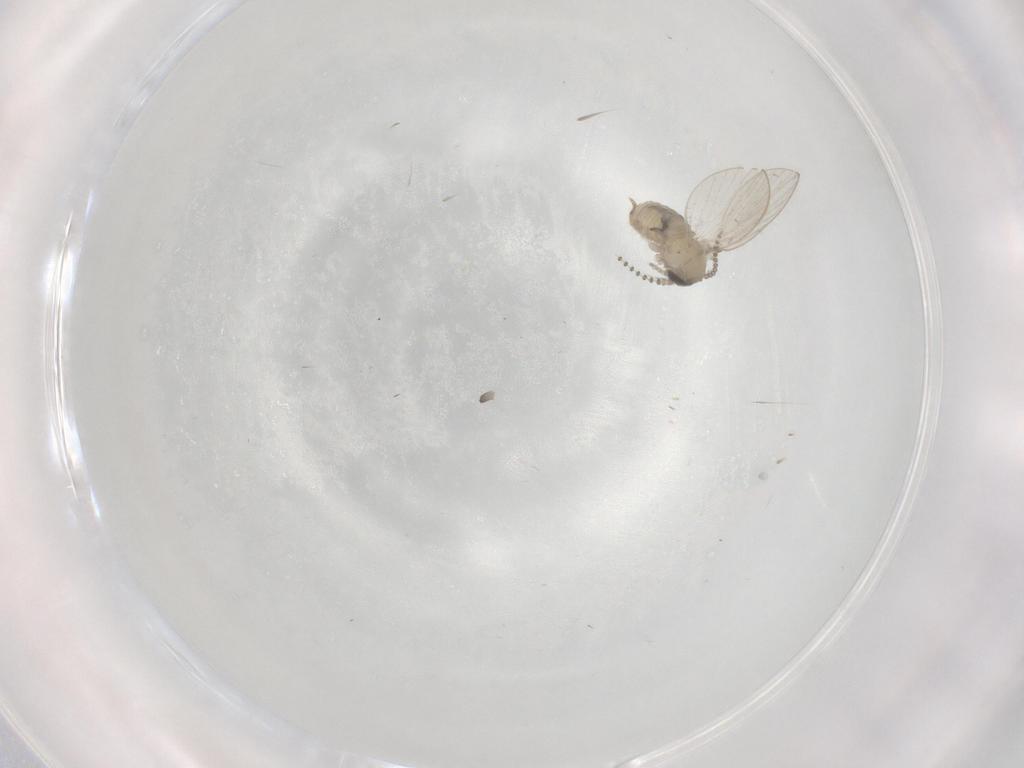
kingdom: Animalia
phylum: Arthropoda
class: Insecta
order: Diptera
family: Psychodidae
